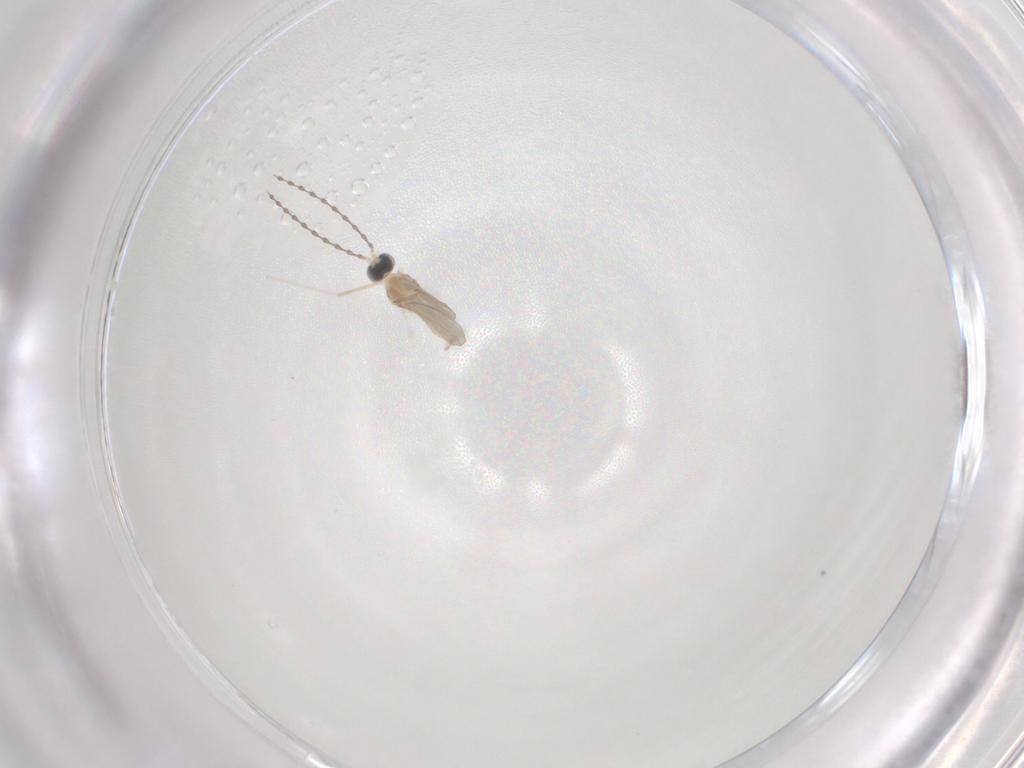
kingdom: Animalia
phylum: Arthropoda
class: Insecta
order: Diptera
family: Cecidomyiidae
